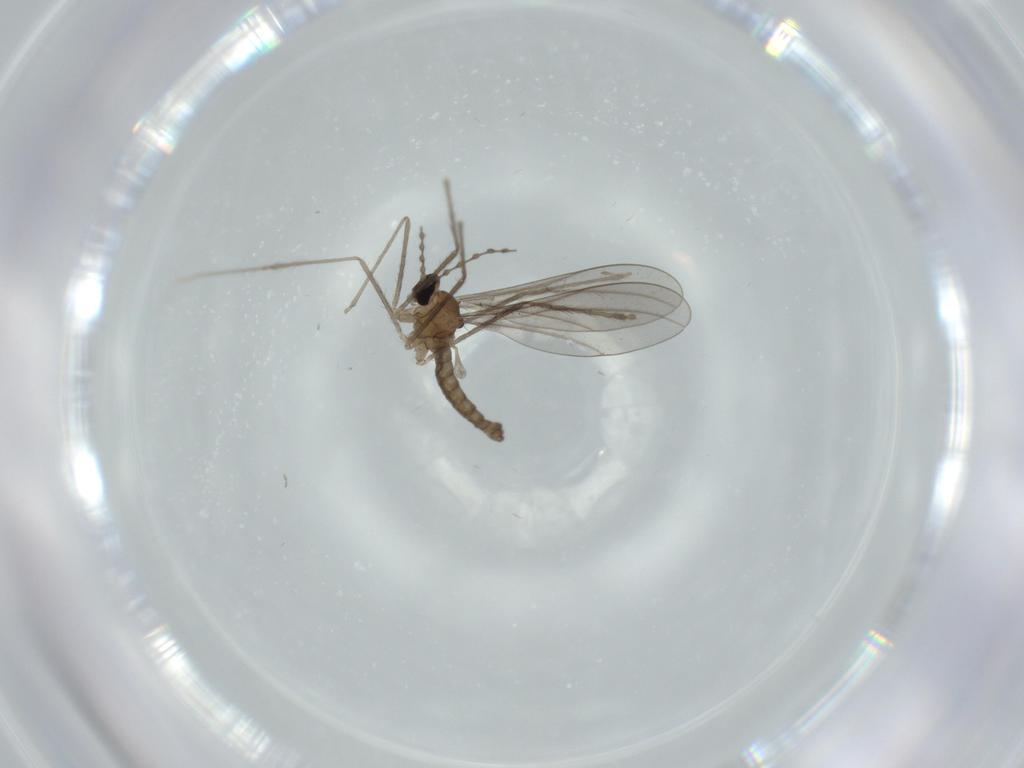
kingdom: Animalia
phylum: Arthropoda
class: Insecta
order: Diptera
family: Cecidomyiidae
